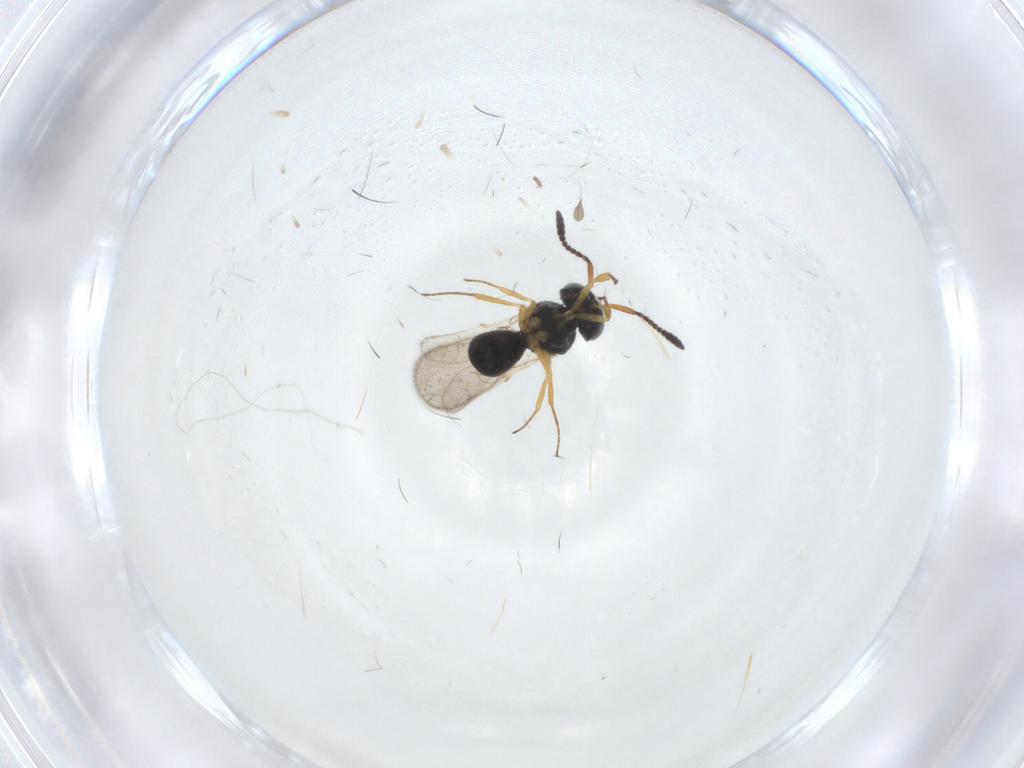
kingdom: Animalia
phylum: Arthropoda
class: Insecta
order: Hymenoptera
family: Scelionidae
